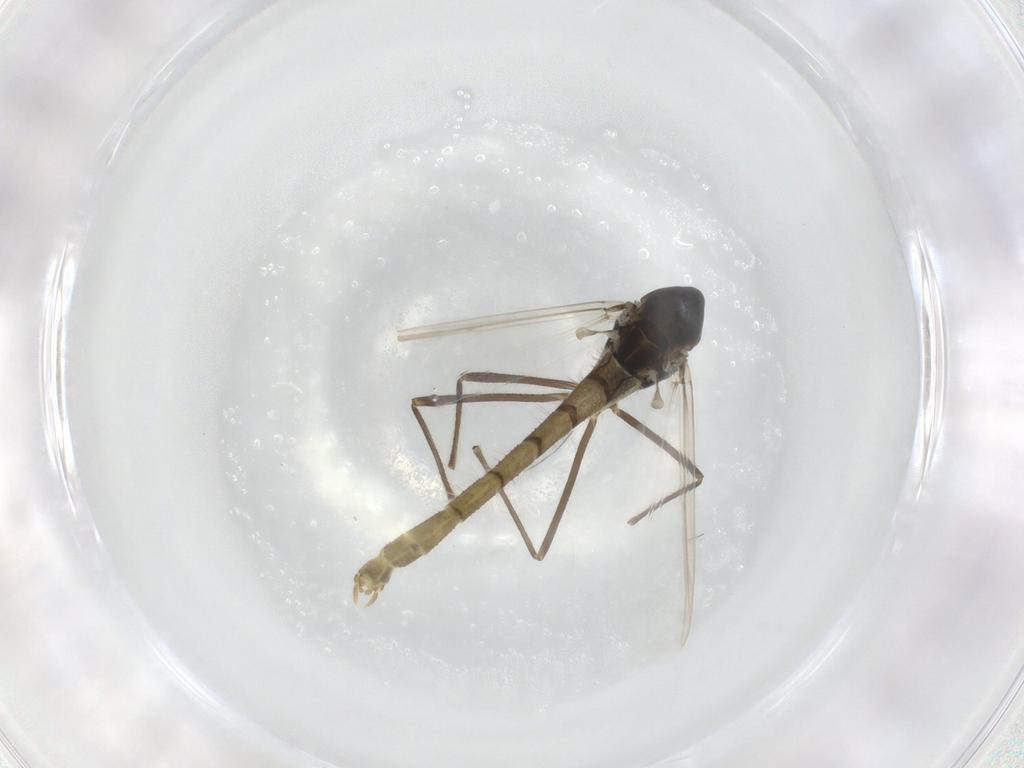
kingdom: Animalia
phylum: Arthropoda
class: Insecta
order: Diptera
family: Chironomidae
